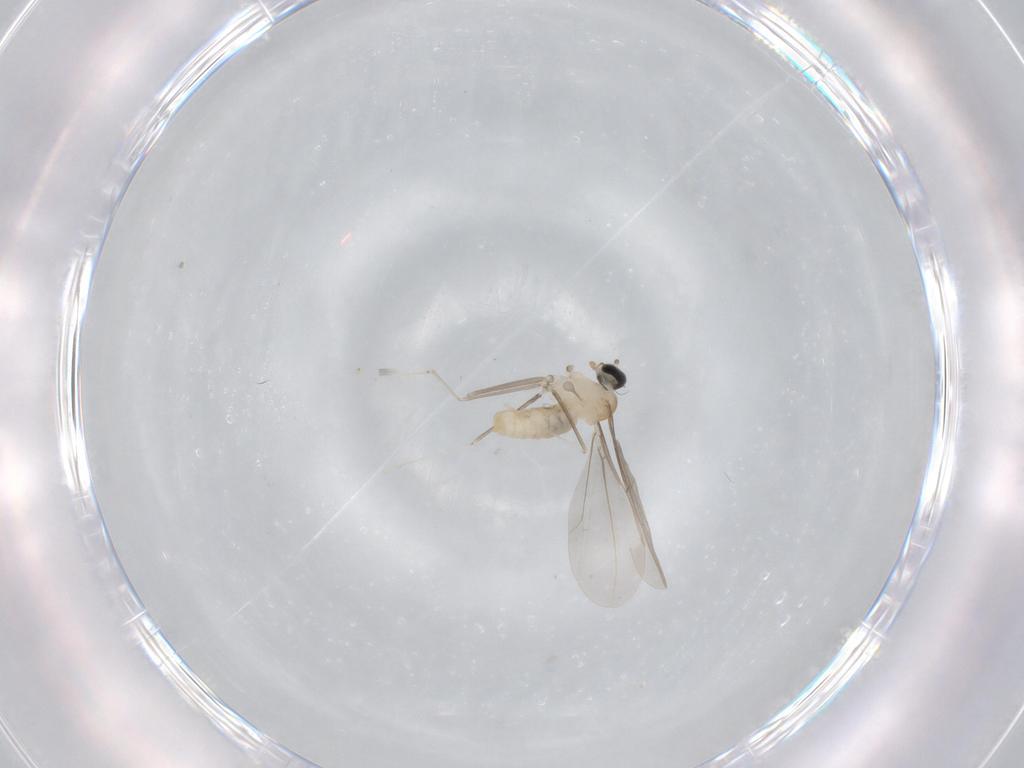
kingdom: Animalia
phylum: Arthropoda
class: Insecta
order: Diptera
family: Cecidomyiidae
